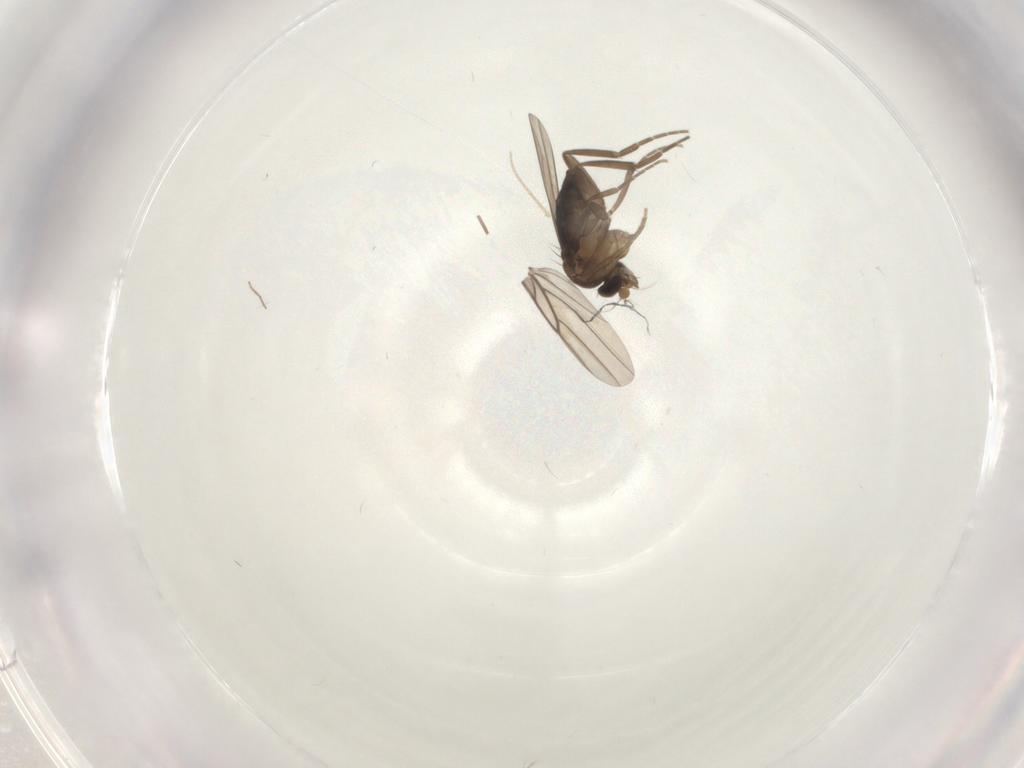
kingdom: Animalia
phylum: Arthropoda
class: Insecta
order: Diptera
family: Chironomidae
